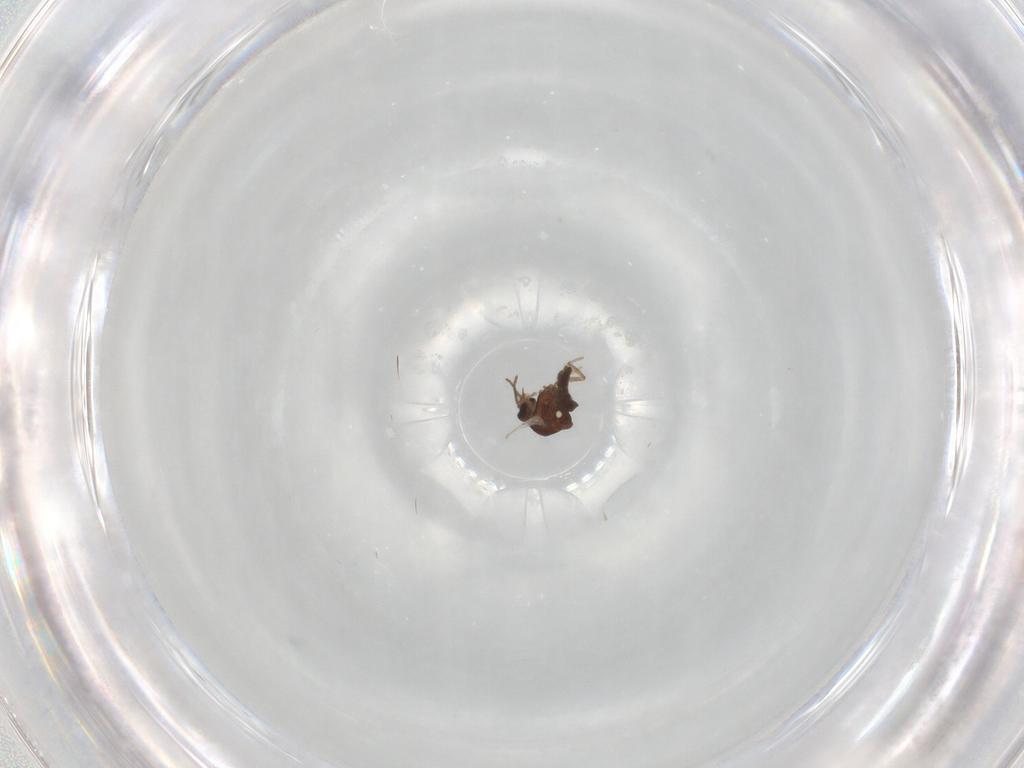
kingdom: Animalia
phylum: Arthropoda
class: Insecta
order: Diptera
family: Ceratopogonidae
